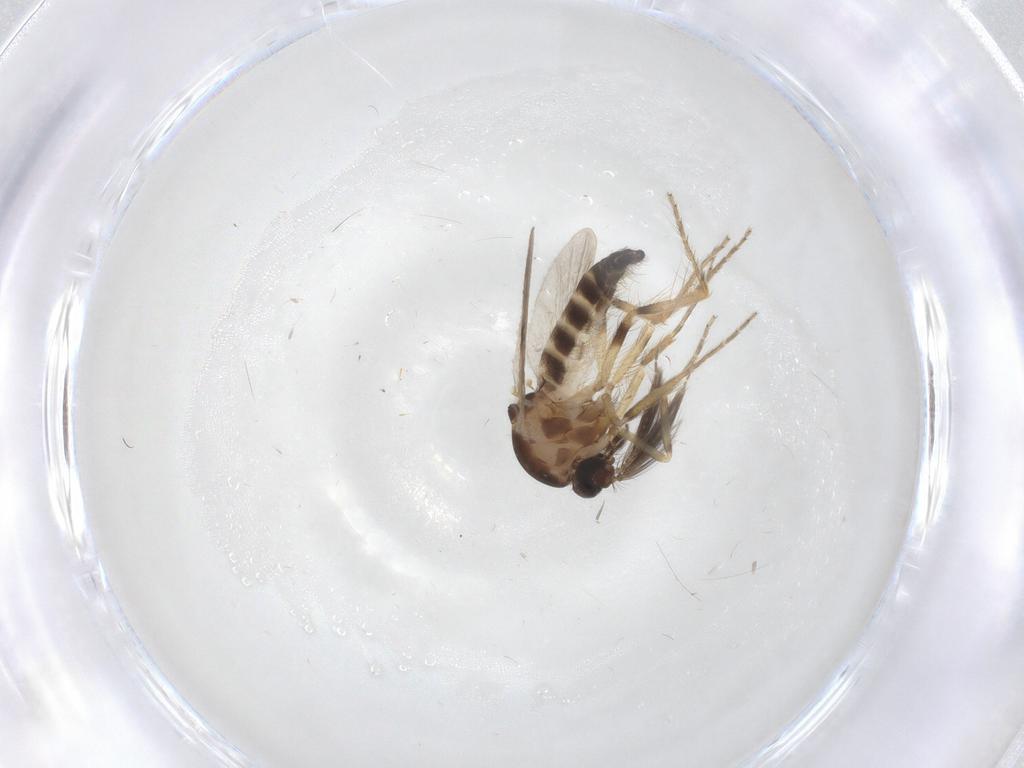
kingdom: Animalia
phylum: Arthropoda
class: Insecta
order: Diptera
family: Ceratopogonidae
